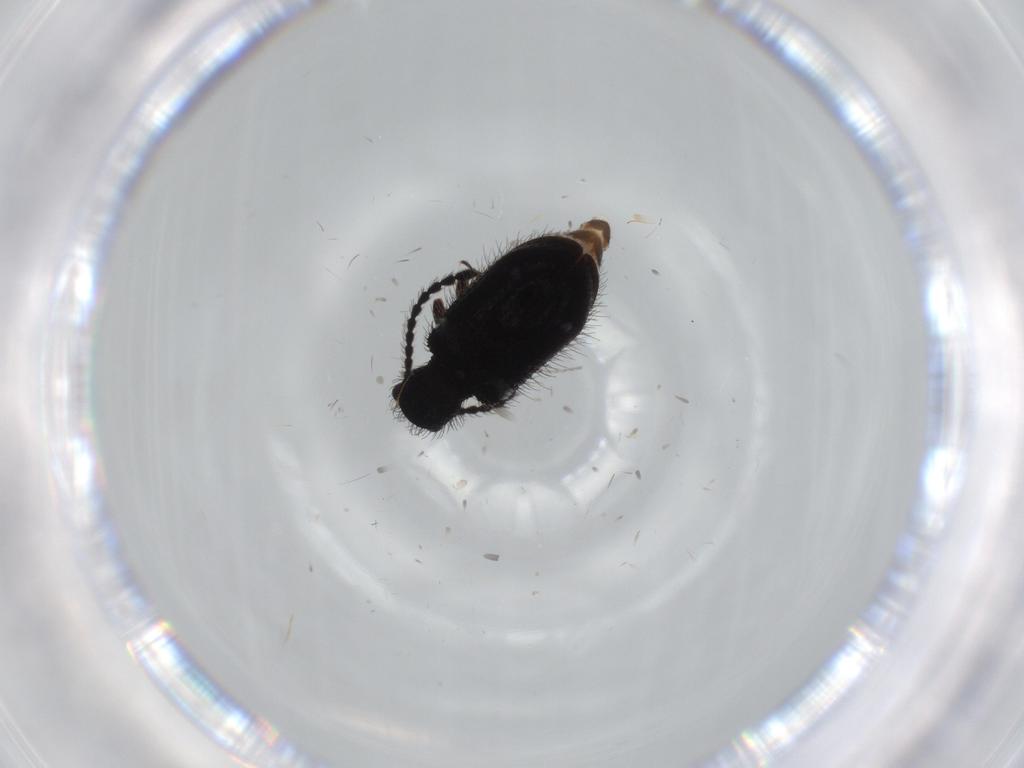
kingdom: Animalia
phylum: Arthropoda
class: Insecta
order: Coleoptera
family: Ptinidae
